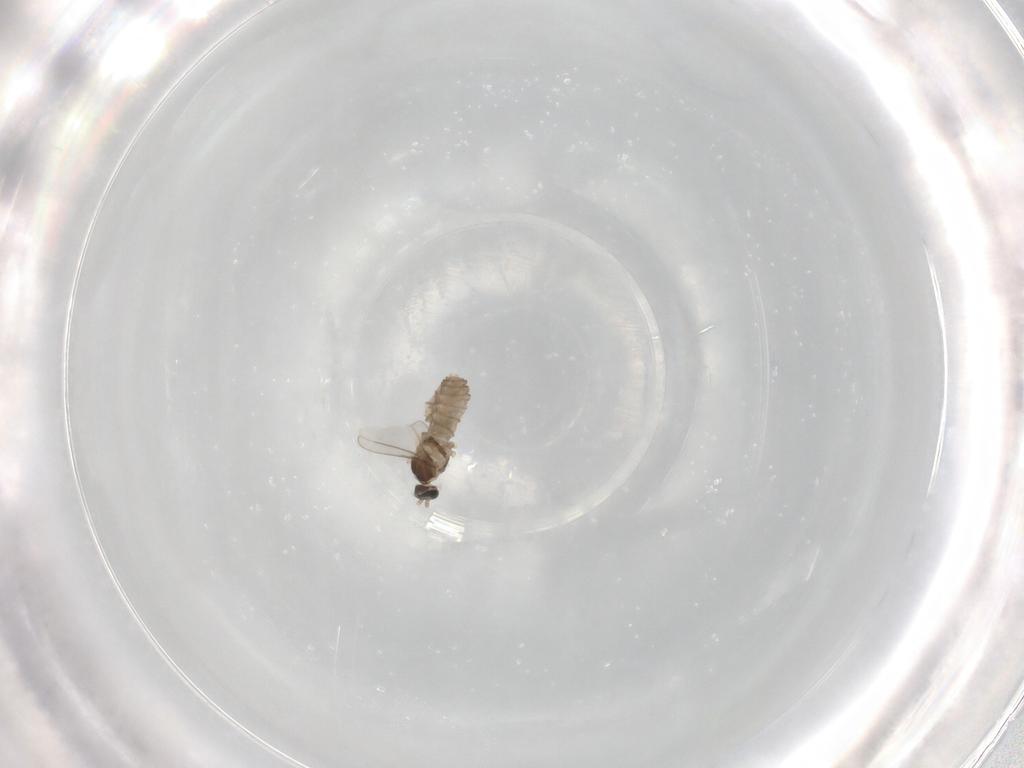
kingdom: Animalia
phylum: Arthropoda
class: Insecta
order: Diptera
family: Cecidomyiidae
